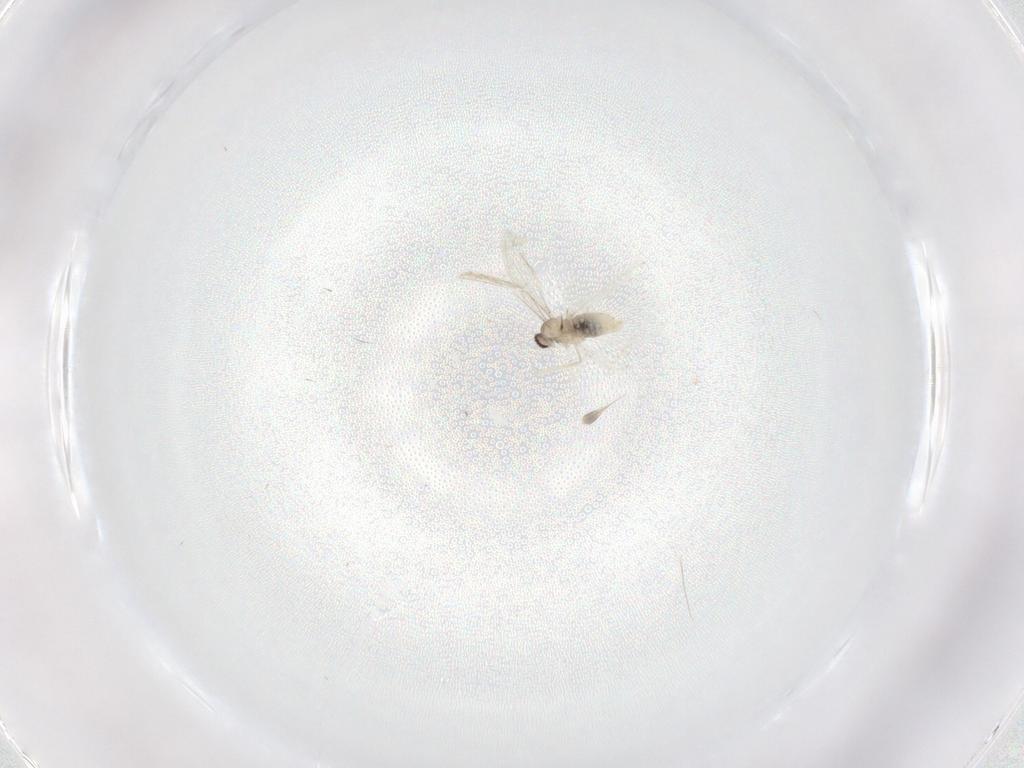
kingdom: Animalia
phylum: Arthropoda
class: Insecta
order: Diptera
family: Cecidomyiidae
